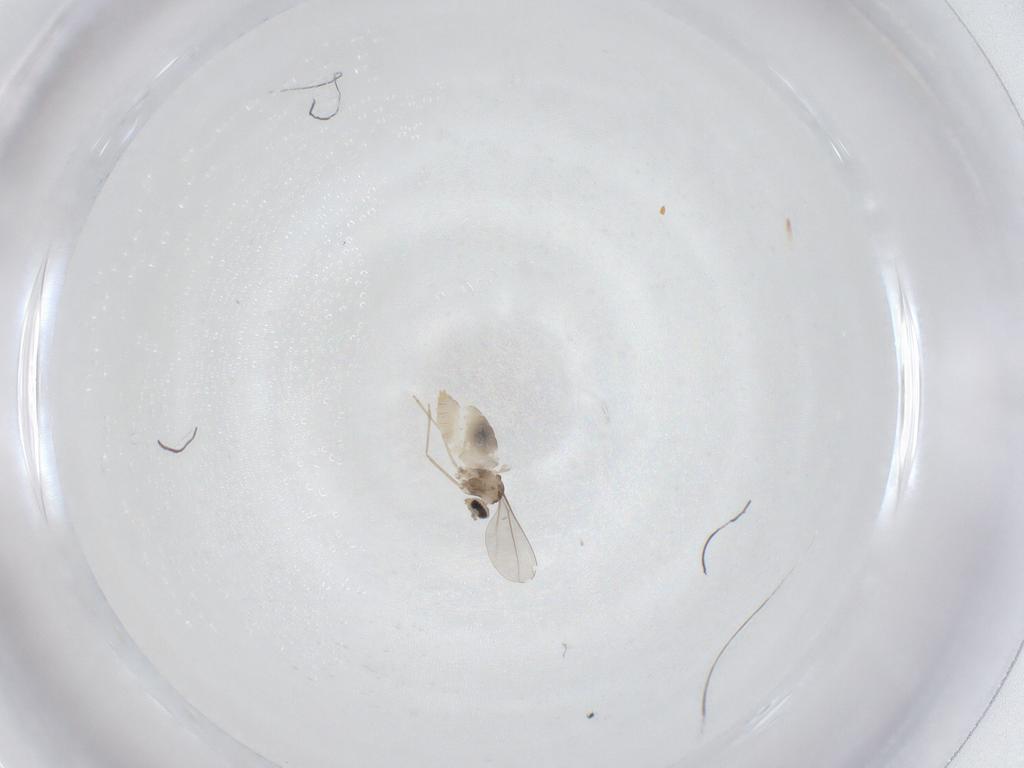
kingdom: Animalia
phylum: Arthropoda
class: Insecta
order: Diptera
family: Cecidomyiidae
